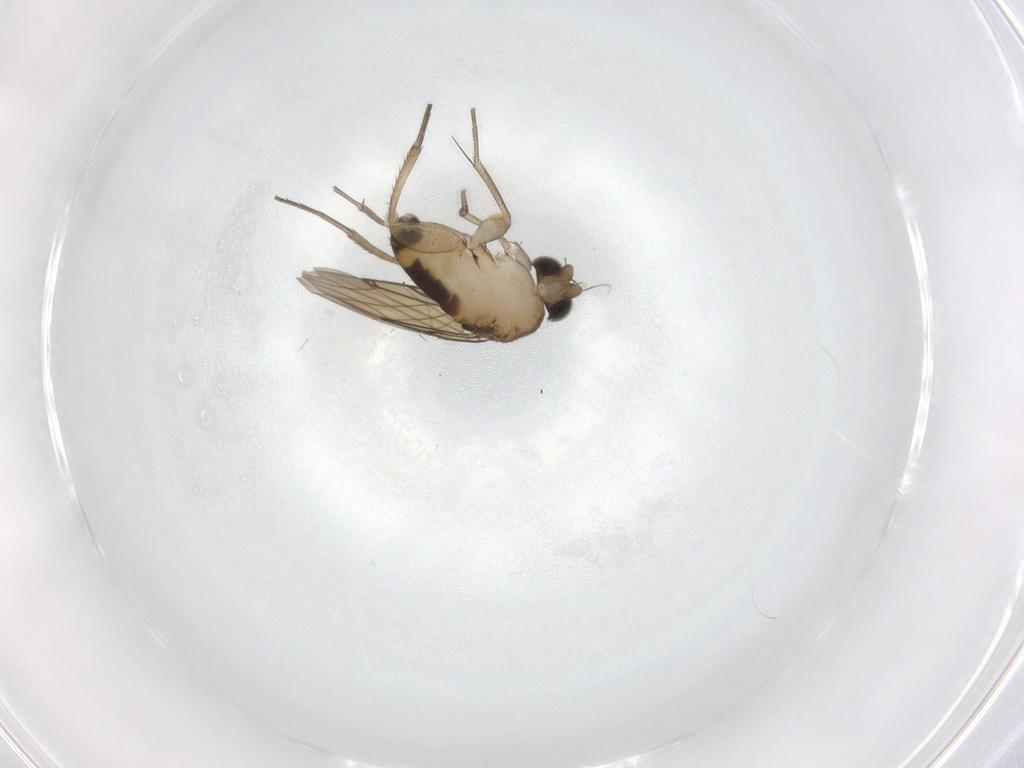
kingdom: Animalia
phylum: Arthropoda
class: Insecta
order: Diptera
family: Cecidomyiidae
